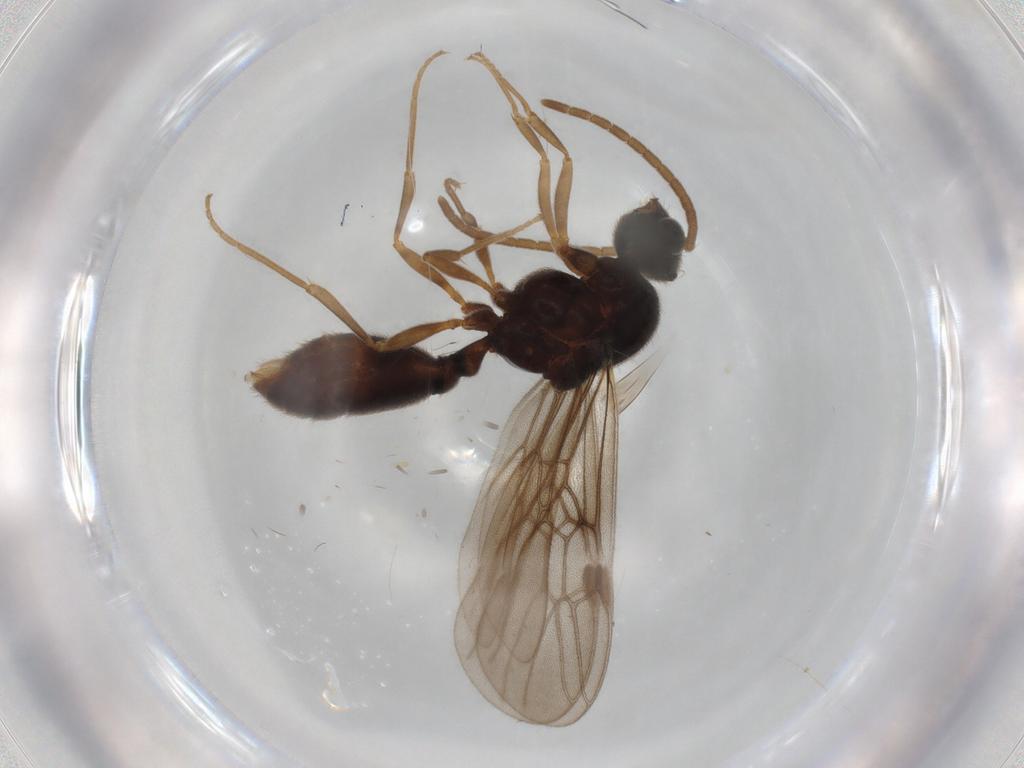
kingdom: Animalia
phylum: Arthropoda
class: Insecta
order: Hymenoptera
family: Formicidae
